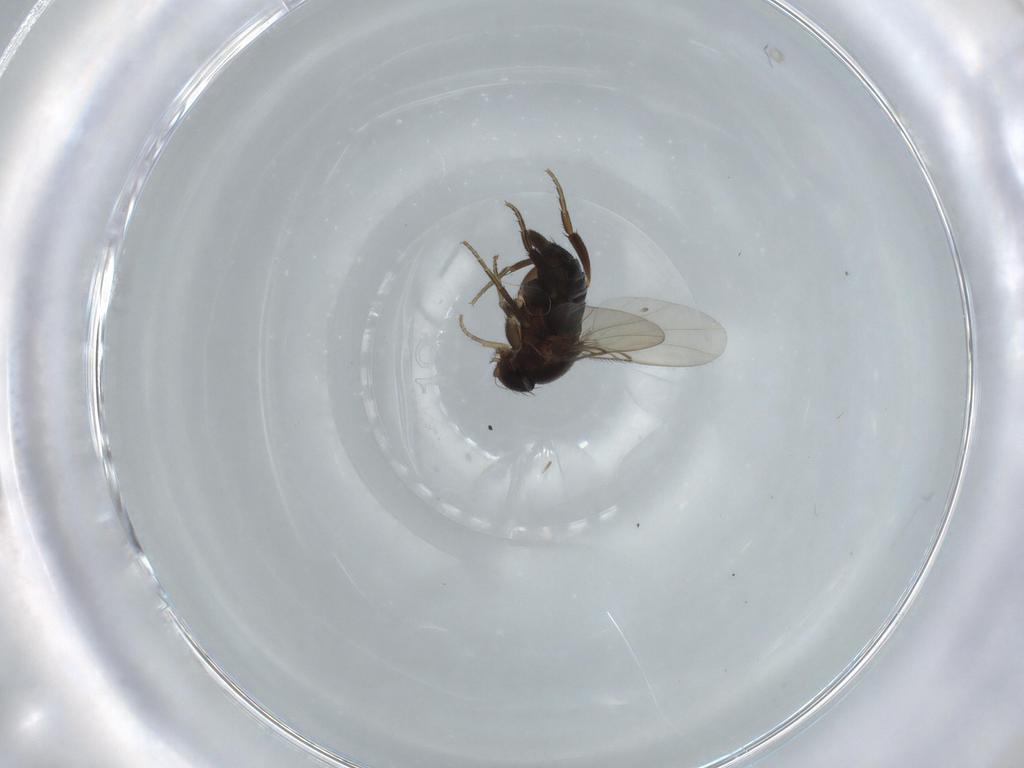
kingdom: Animalia
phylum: Arthropoda
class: Insecta
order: Diptera
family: Phoridae
